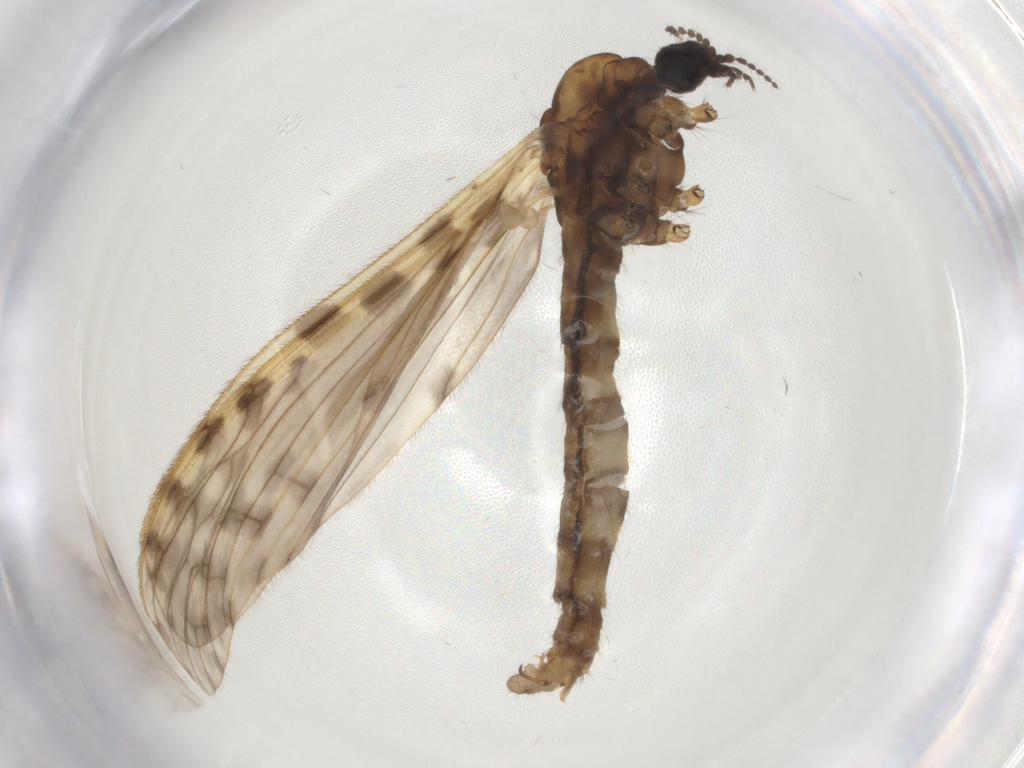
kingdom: Animalia
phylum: Arthropoda
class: Insecta
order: Diptera
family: Limoniidae
